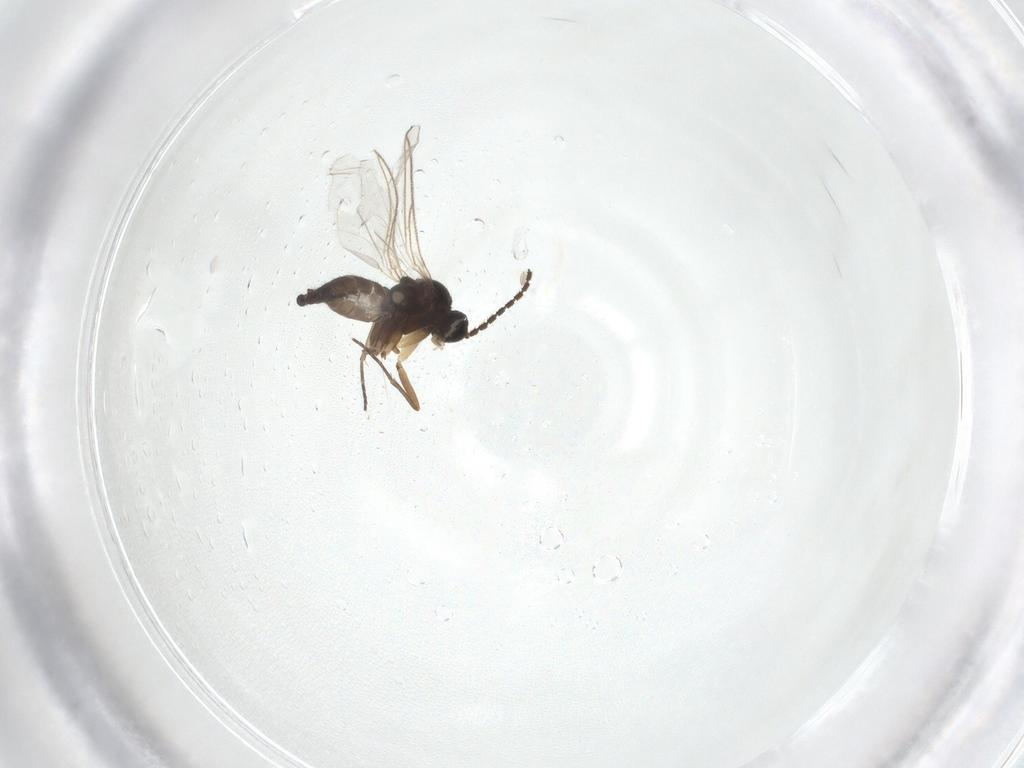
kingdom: Animalia
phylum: Arthropoda
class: Insecta
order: Diptera
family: Sciaridae
